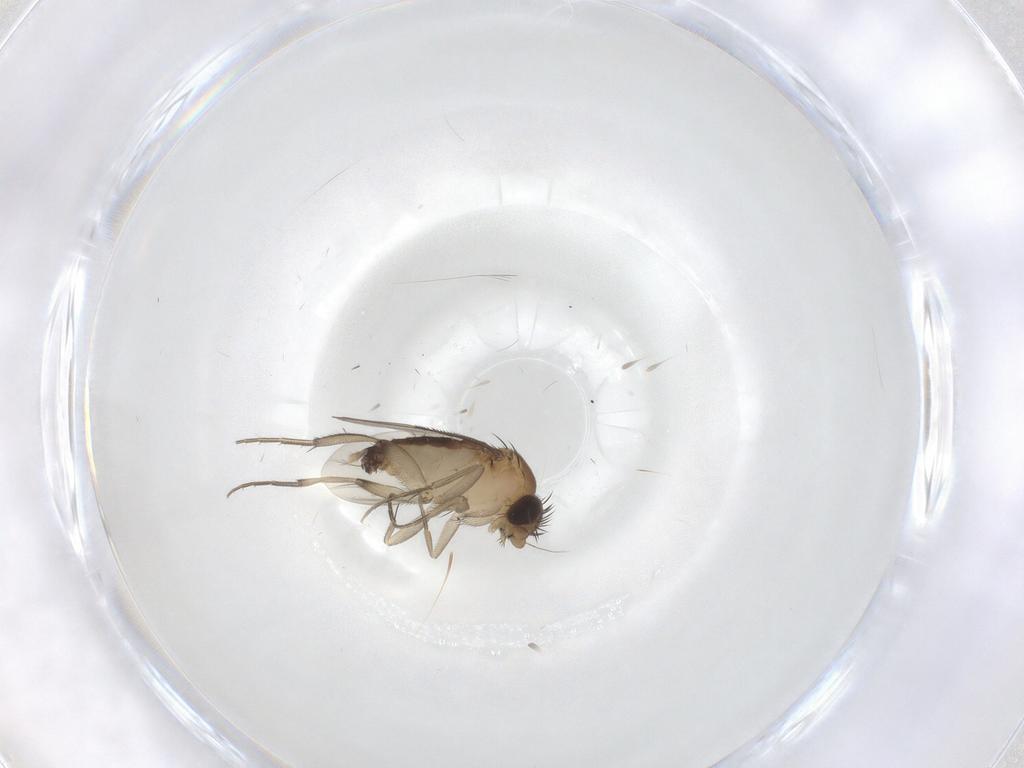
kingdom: Animalia
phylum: Arthropoda
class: Insecta
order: Diptera
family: Phoridae
